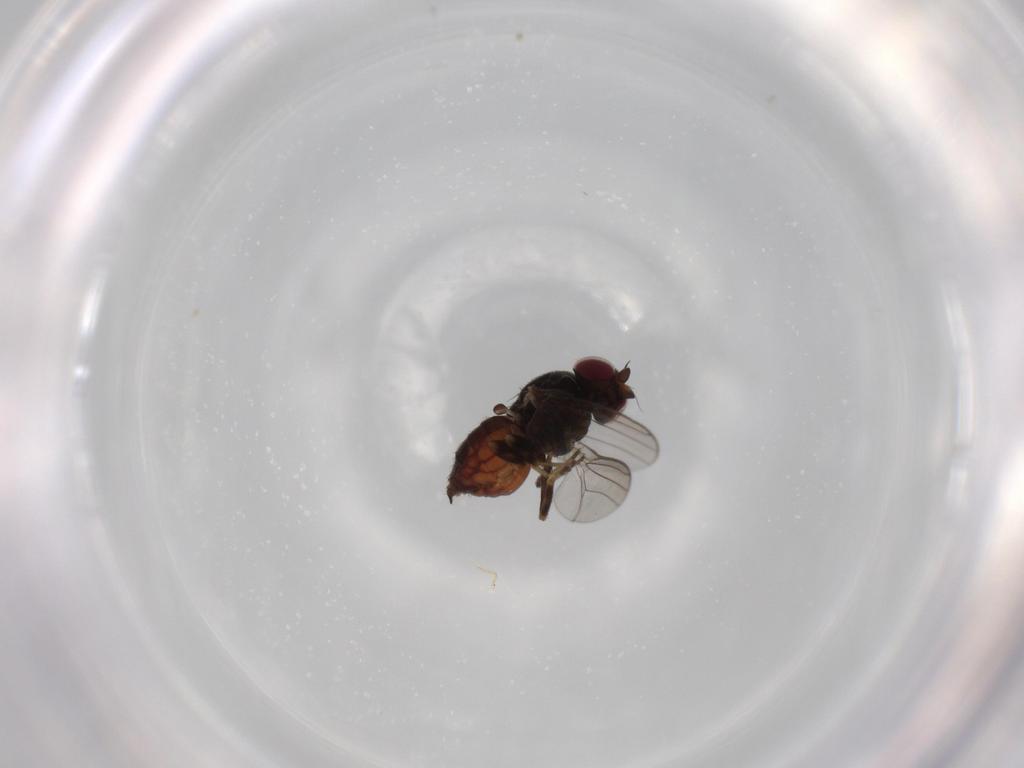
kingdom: Animalia
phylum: Arthropoda
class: Insecta
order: Diptera
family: Chloropidae
